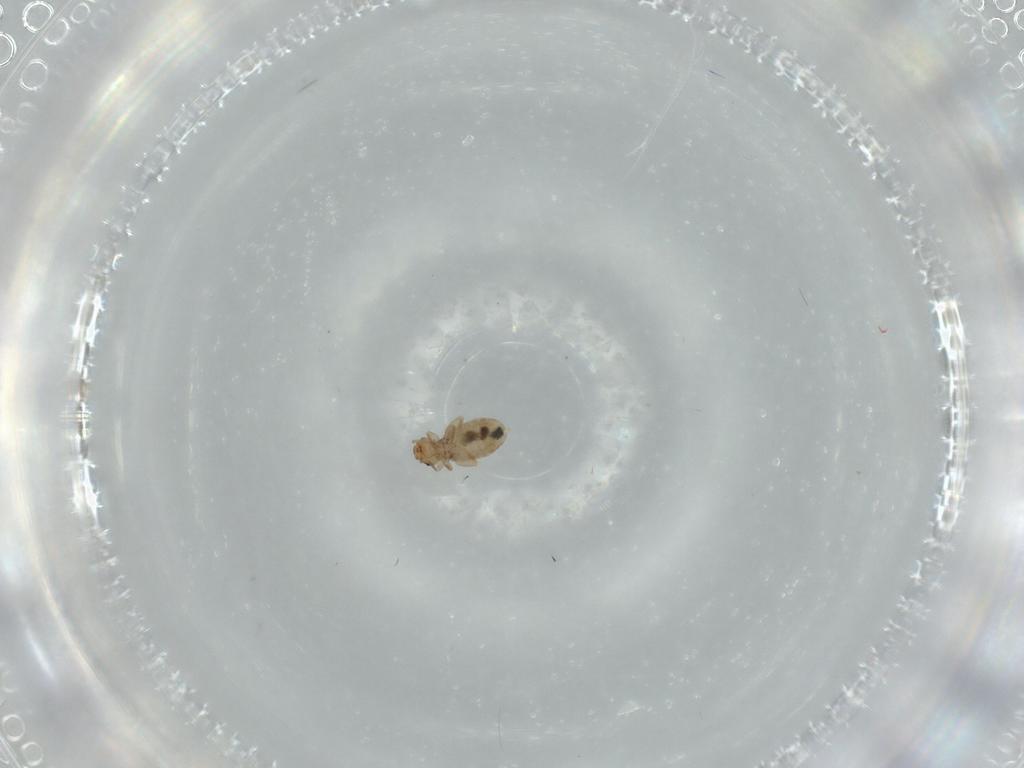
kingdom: Animalia
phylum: Arthropoda
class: Insecta
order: Psocodea
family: Liposcelididae
